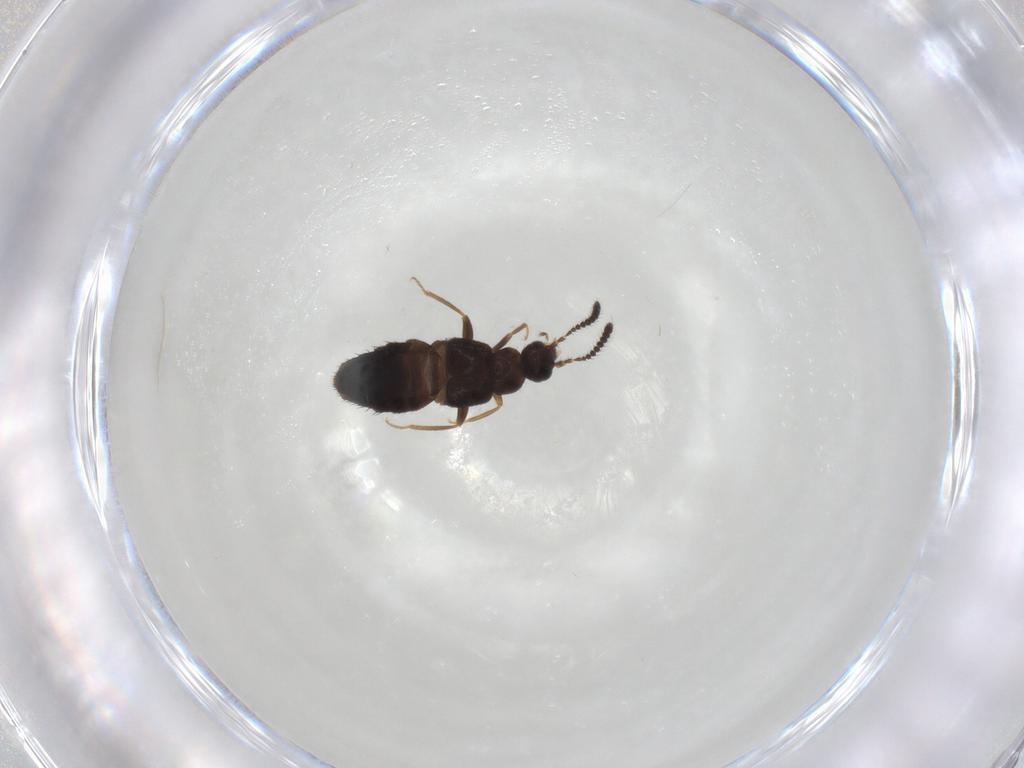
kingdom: Animalia
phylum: Arthropoda
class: Insecta
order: Coleoptera
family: Staphylinidae
